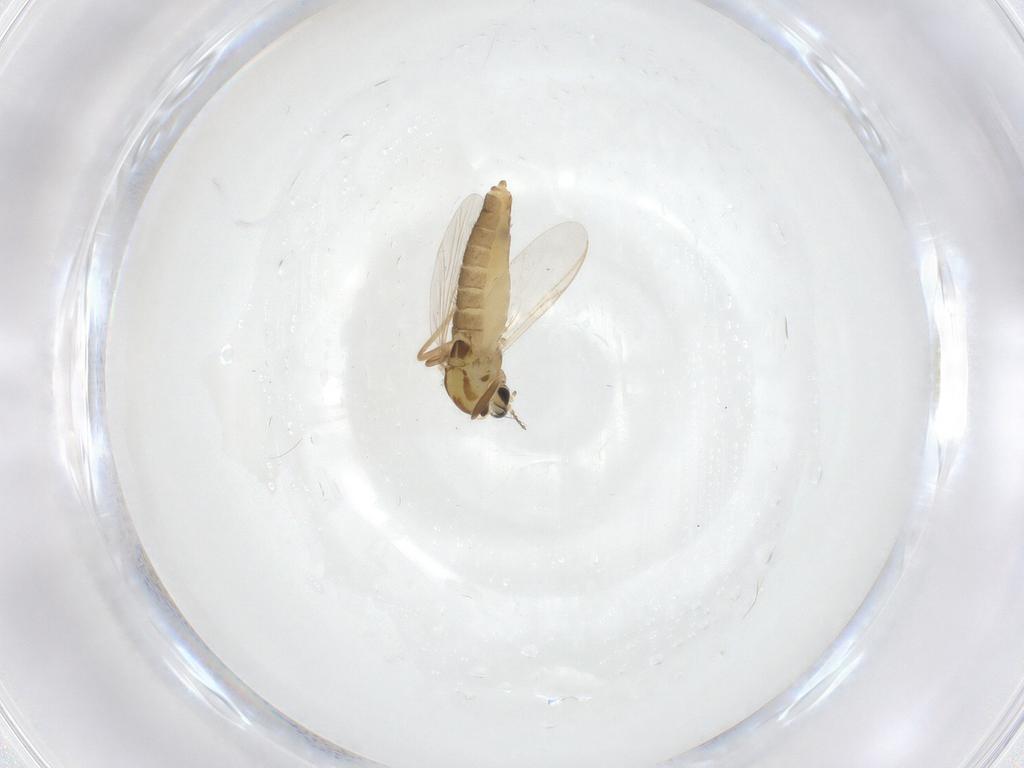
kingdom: Animalia
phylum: Arthropoda
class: Insecta
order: Diptera
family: Chironomidae
